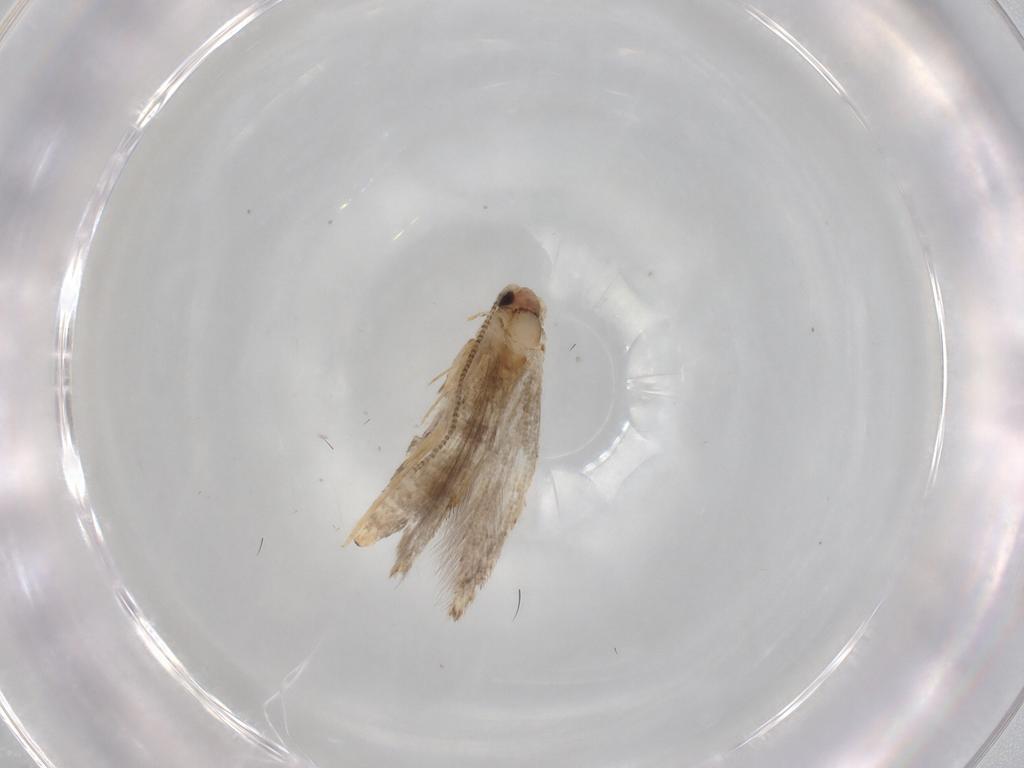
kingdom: Animalia
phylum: Arthropoda
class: Insecta
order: Lepidoptera
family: Tineidae
